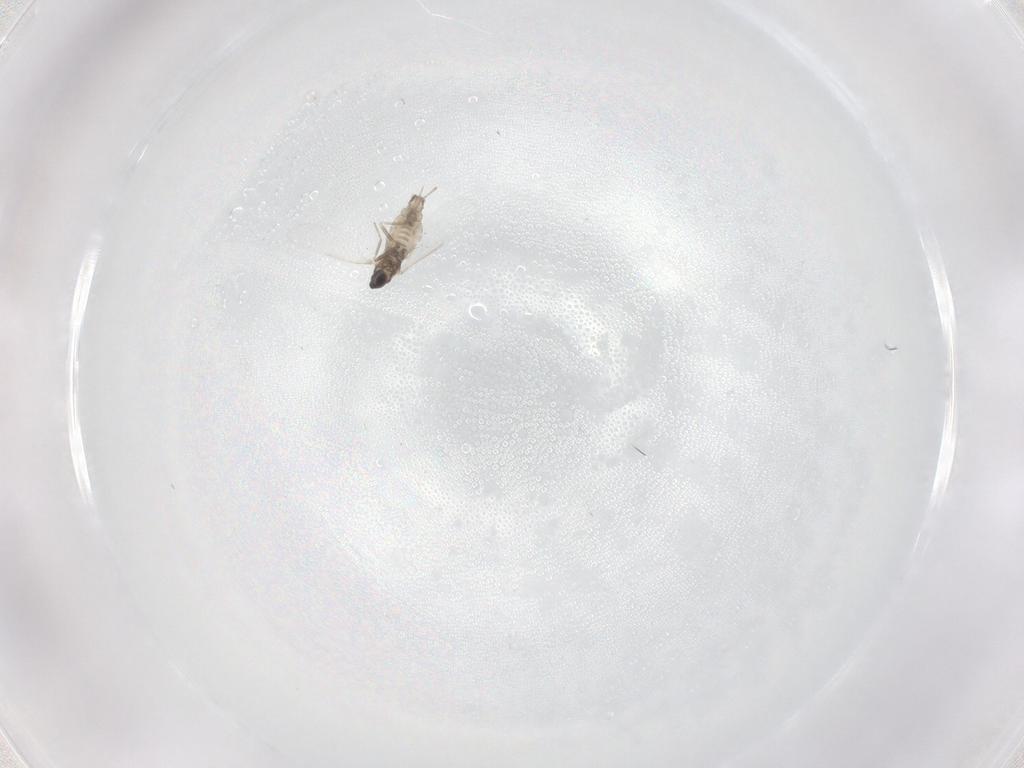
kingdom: Animalia
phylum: Arthropoda
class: Insecta
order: Diptera
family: Cecidomyiidae
